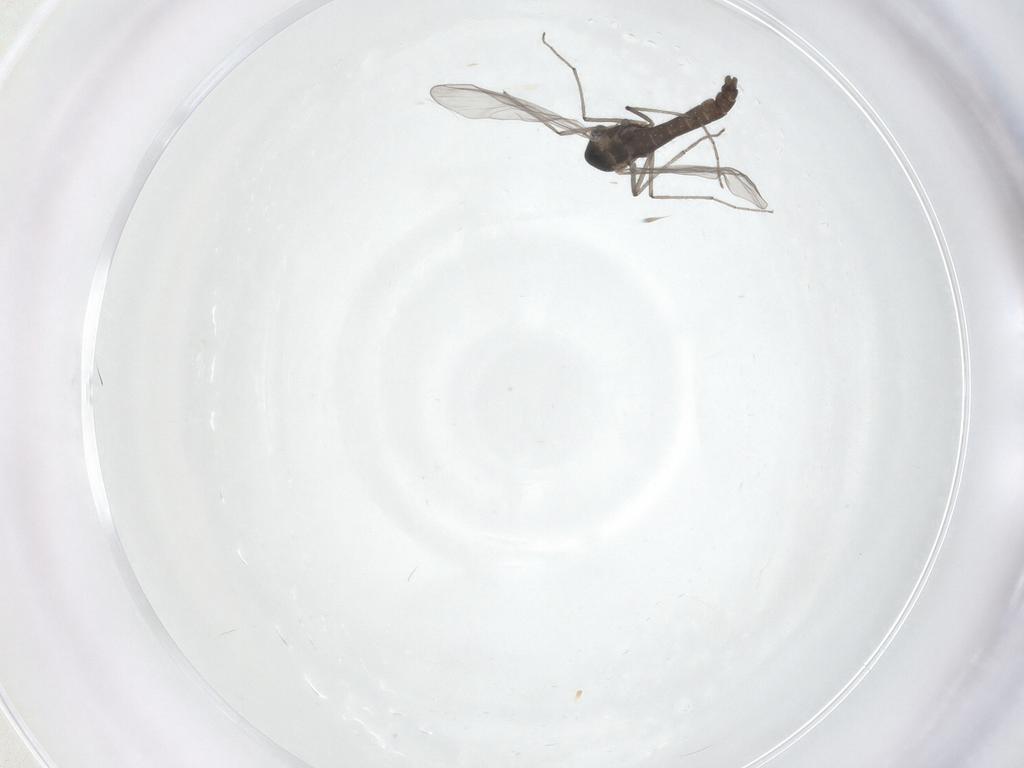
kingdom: Animalia
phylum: Arthropoda
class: Insecta
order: Diptera
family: Chironomidae
